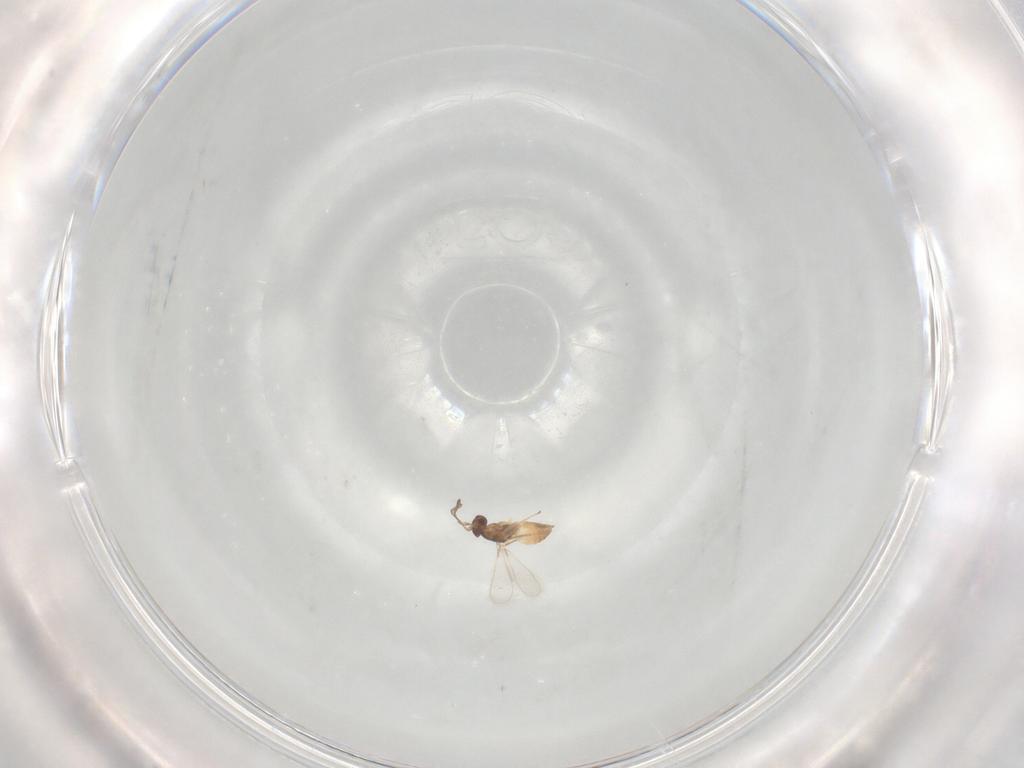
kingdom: Animalia
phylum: Arthropoda
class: Insecta
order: Hymenoptera
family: Mymaridae
